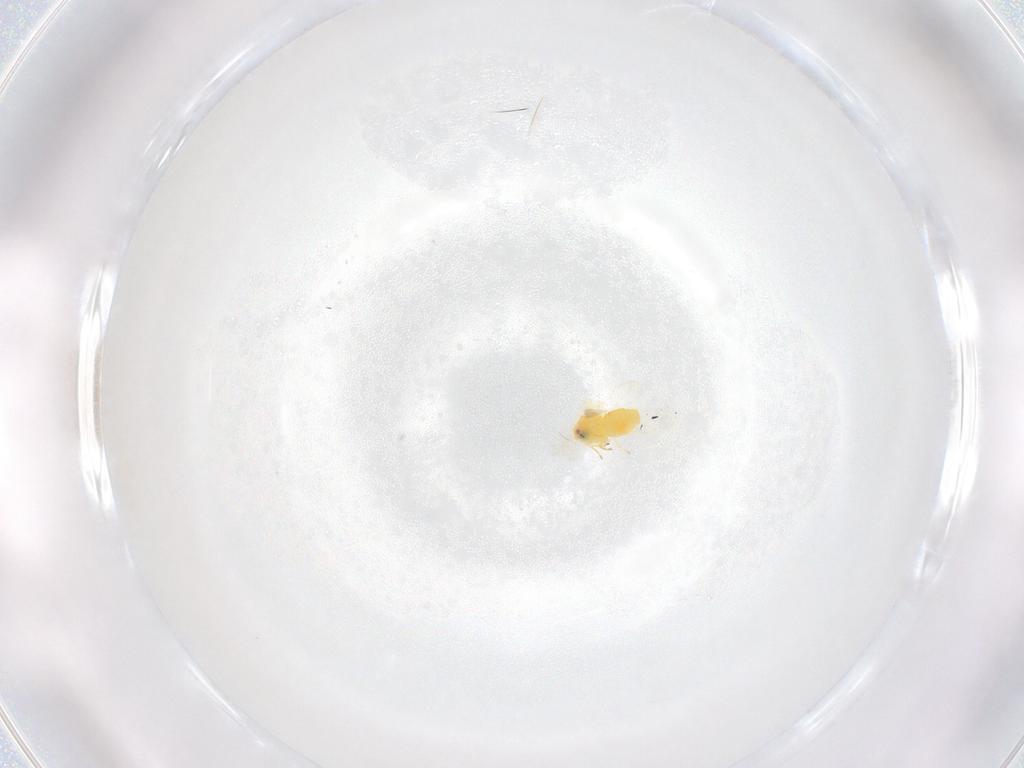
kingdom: Animalia
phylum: Arthropoda
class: Insecta
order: Hemiptera
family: Aleyrodidae
